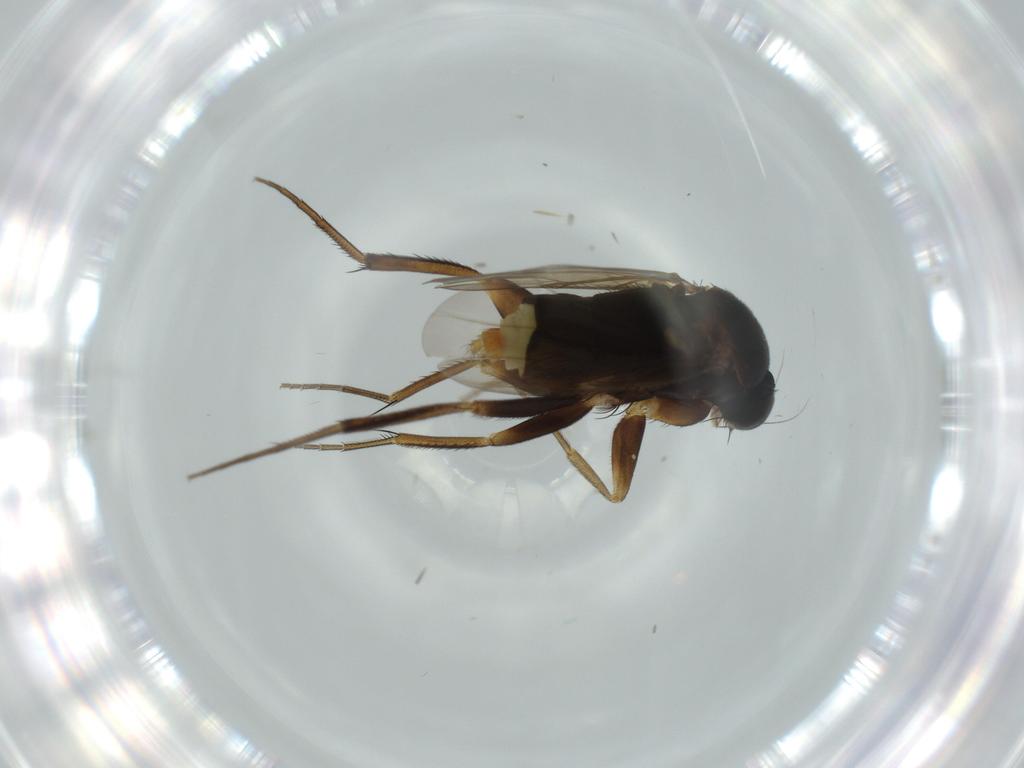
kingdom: Animalia
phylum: Arthropoda
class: Insecta
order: Diptera
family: Phoridae
